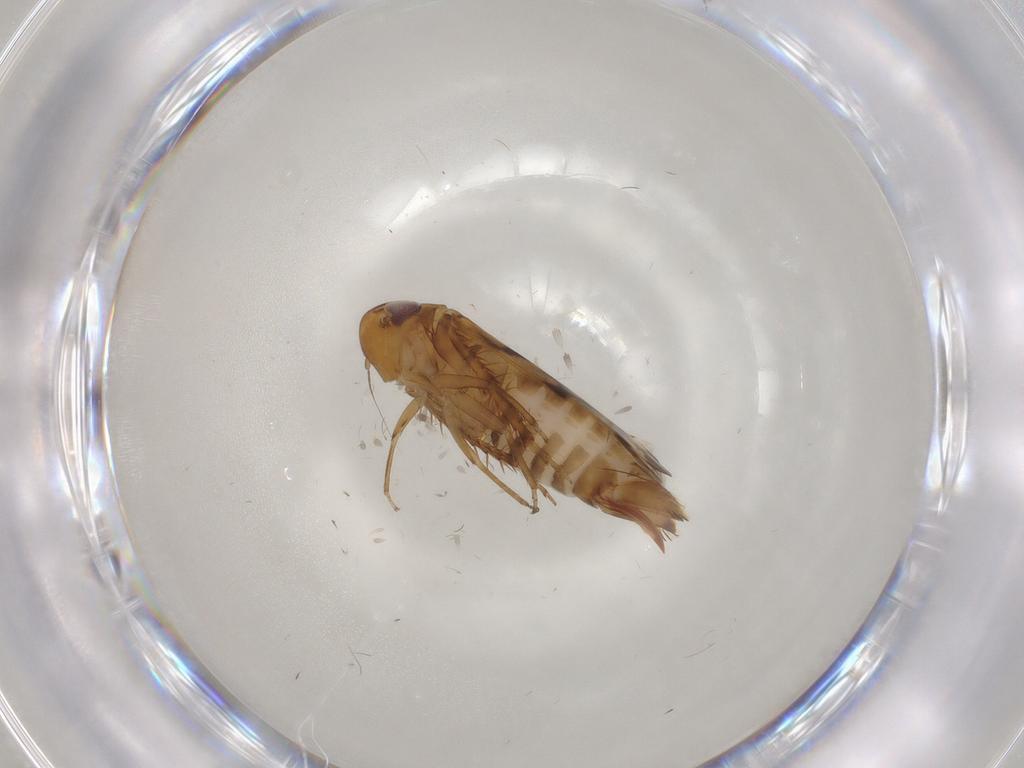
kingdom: Animalia
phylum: Arthropoda
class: Insecta
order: Hemiptera
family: Cicadellidae
